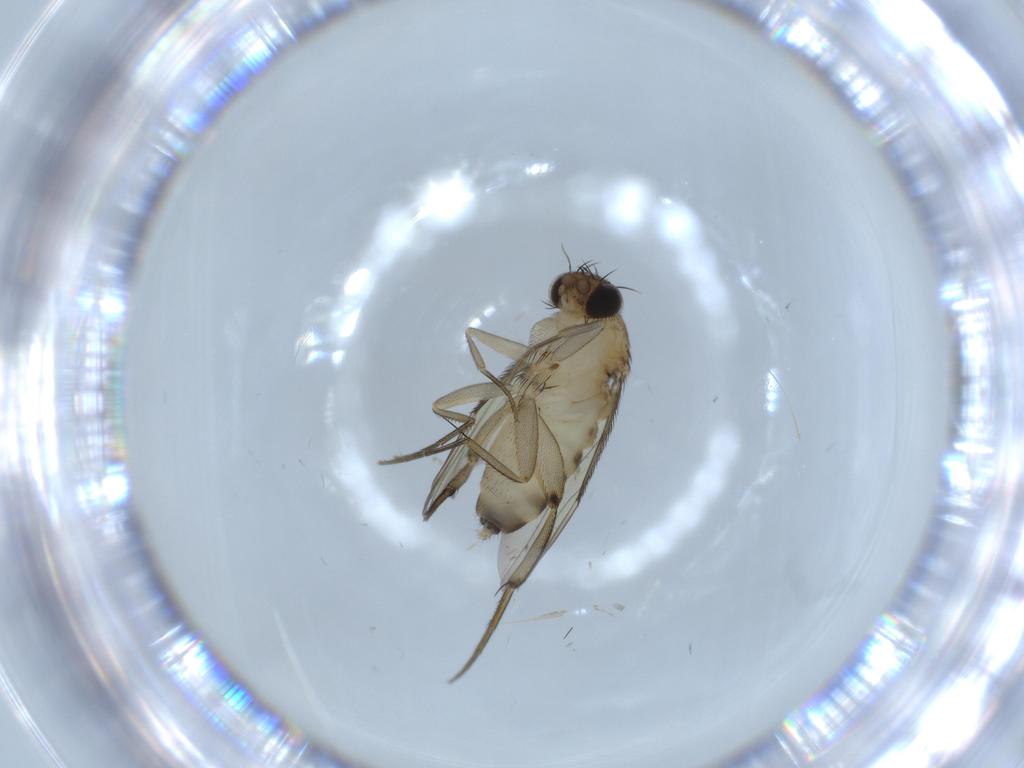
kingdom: Animalia
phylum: Arthropoda
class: Insecta
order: Diptera
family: Phoridae
